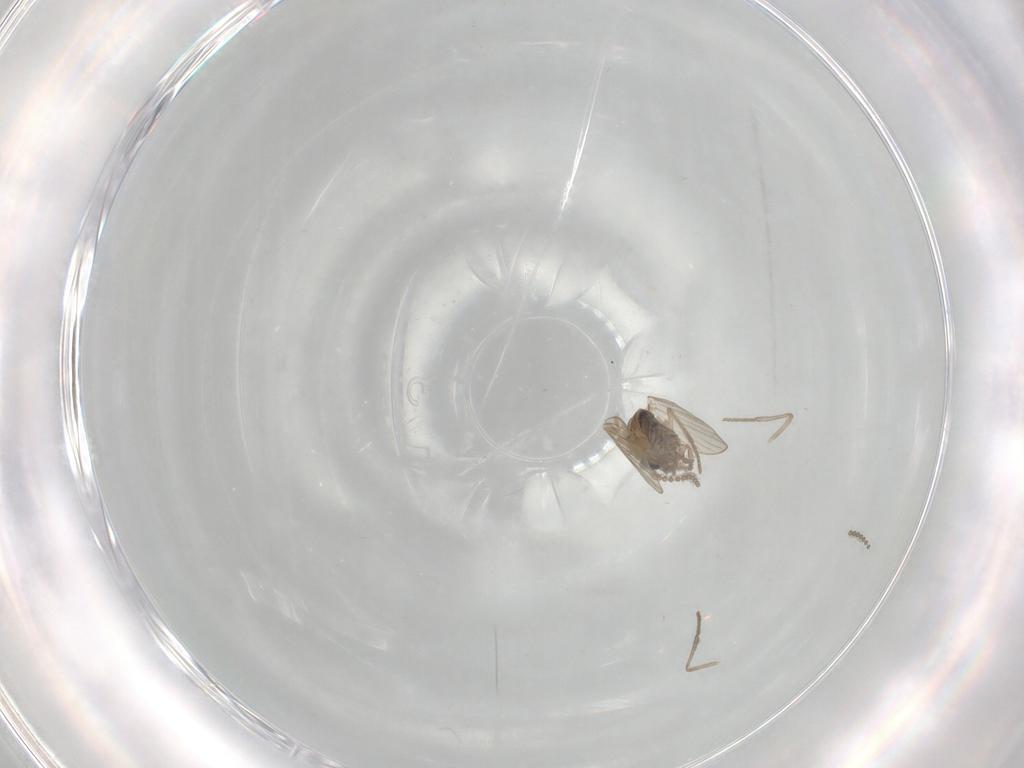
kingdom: Animalia
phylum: Arthropoda
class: Insecta
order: Diptera
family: Psychodidae
